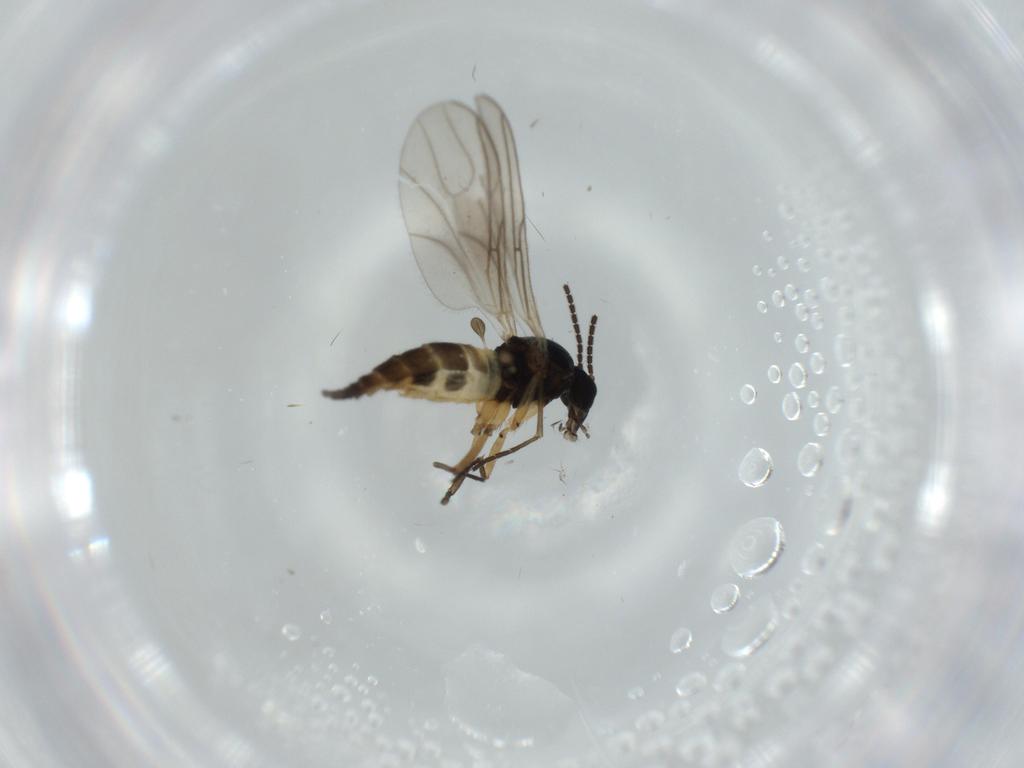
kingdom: Animalia
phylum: Arthropoda
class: Insecta
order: Diptera
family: Sciaridae
